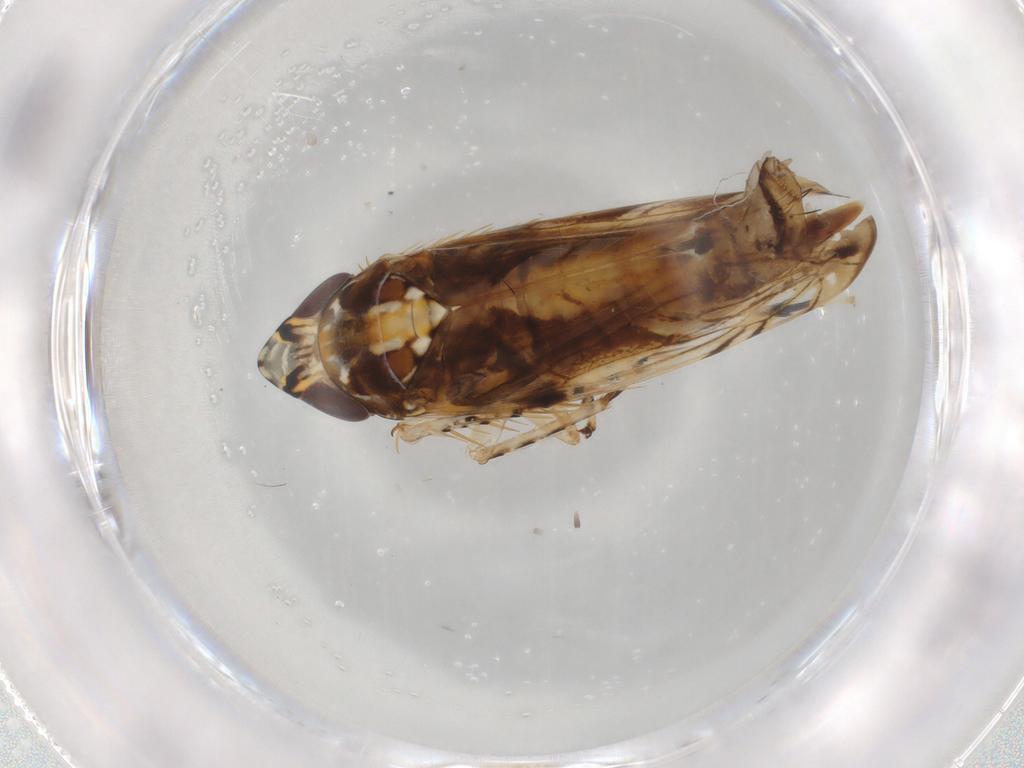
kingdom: Animalia
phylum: Arthropoda
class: Insecta
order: Hemiptera
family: Cicadellidae
